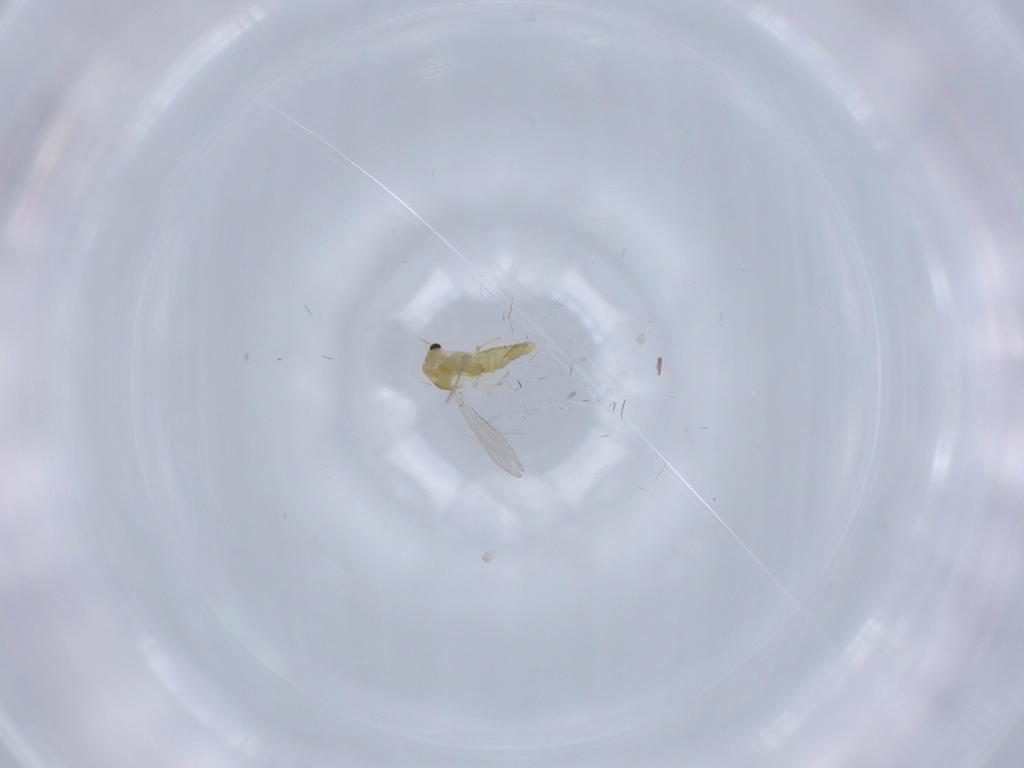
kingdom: Animalia
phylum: Arthropoda
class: Insecta
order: Diptera
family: Chironomidae
